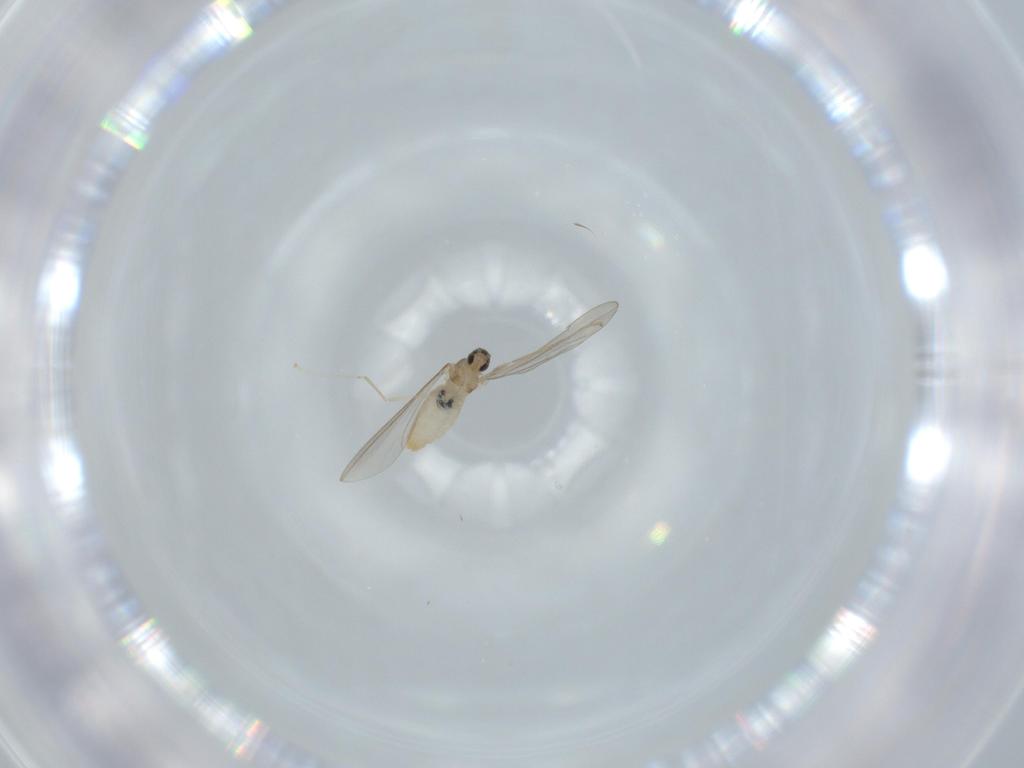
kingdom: Animalia
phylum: Arthropoda
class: Insecta
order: Diptera
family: Cecidomyiidae
